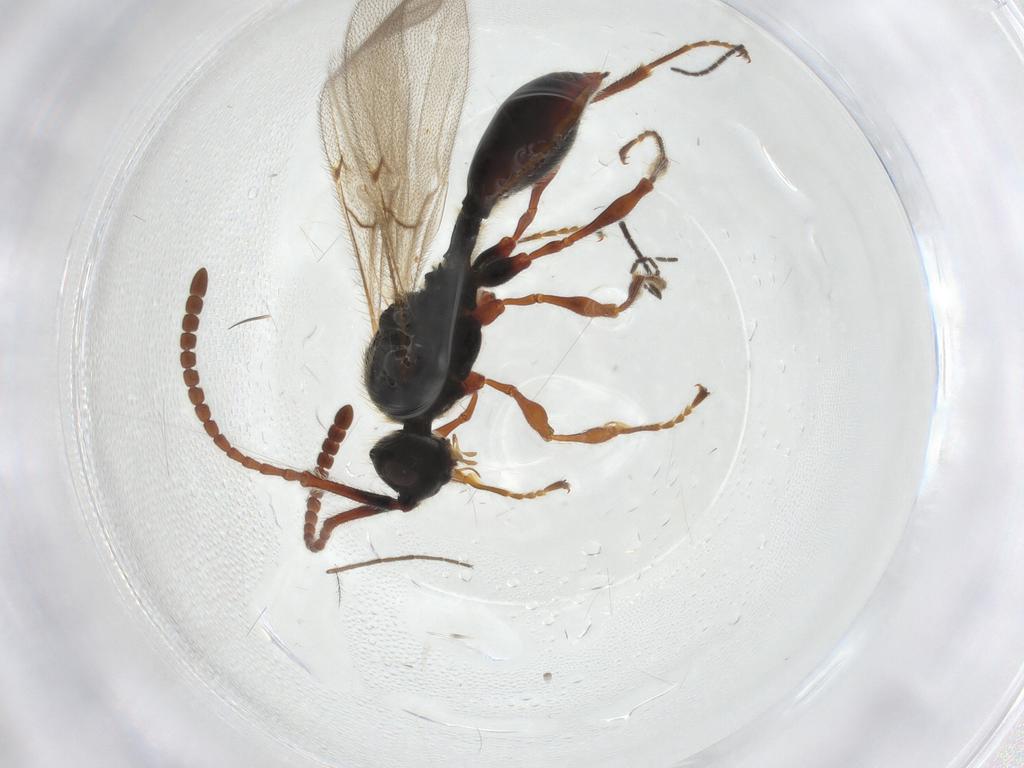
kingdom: Animalia
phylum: Arthropoda
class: Insecta
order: Hymenoptera
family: Diapriidae
